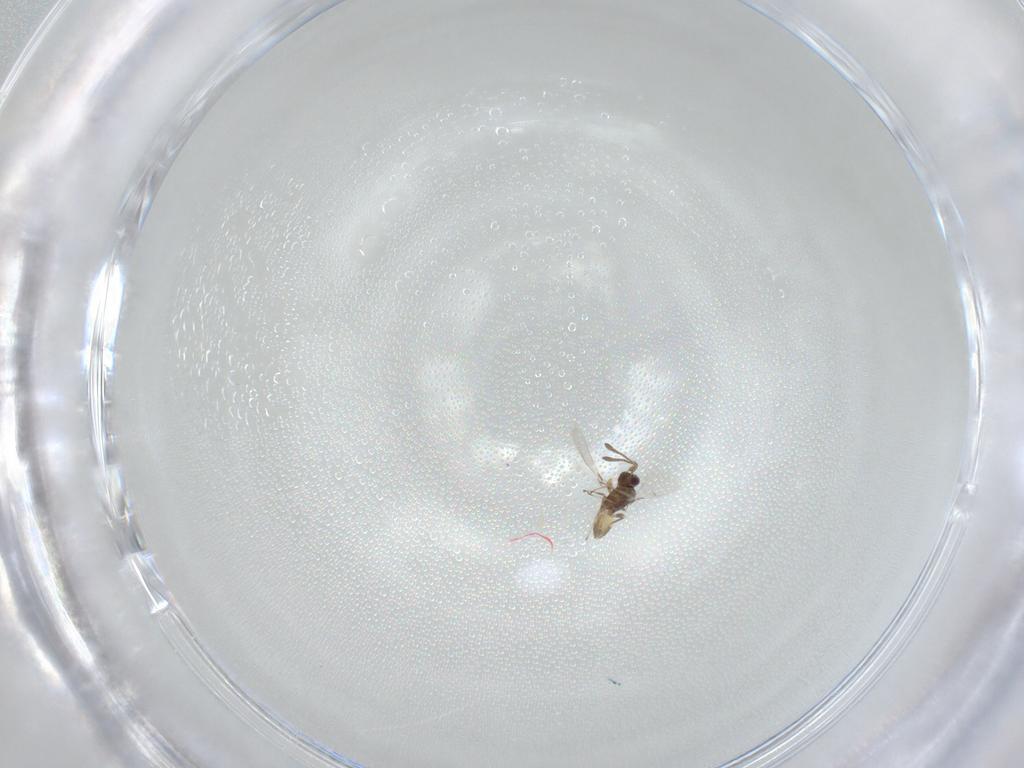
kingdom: Animalia
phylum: Arthropoda
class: Insecta
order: Hymenoptera
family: Mymaridae
